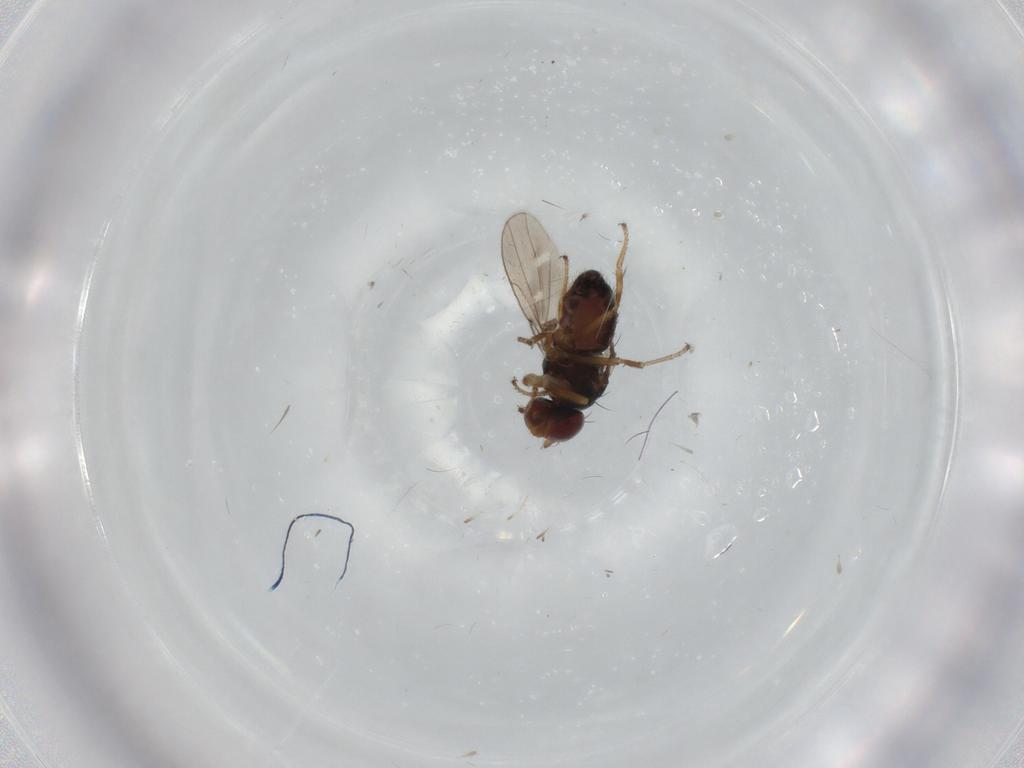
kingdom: Animalia
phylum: Arthropoda
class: Insecta
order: Diptera
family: Ephydridae
